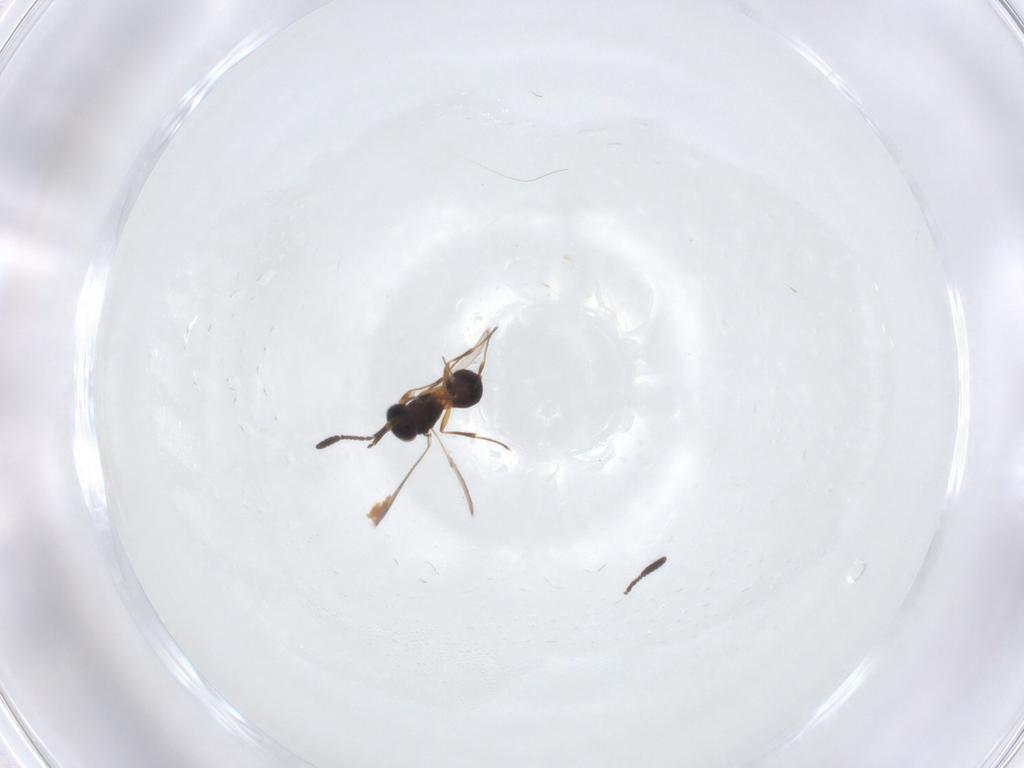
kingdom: Animalia
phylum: Arthropoda
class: Insecta
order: Hymenoptera
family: Scelionidae
